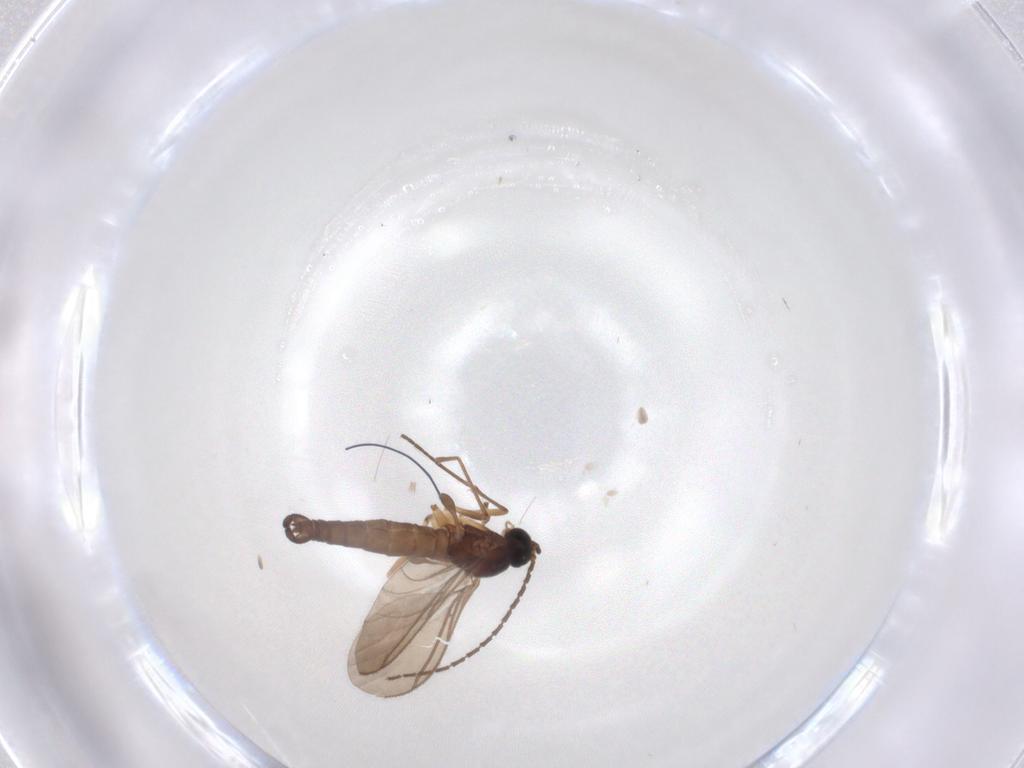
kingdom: Animalia
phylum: Arthropoda
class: Insecta
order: Diptera
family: Sciaridae
